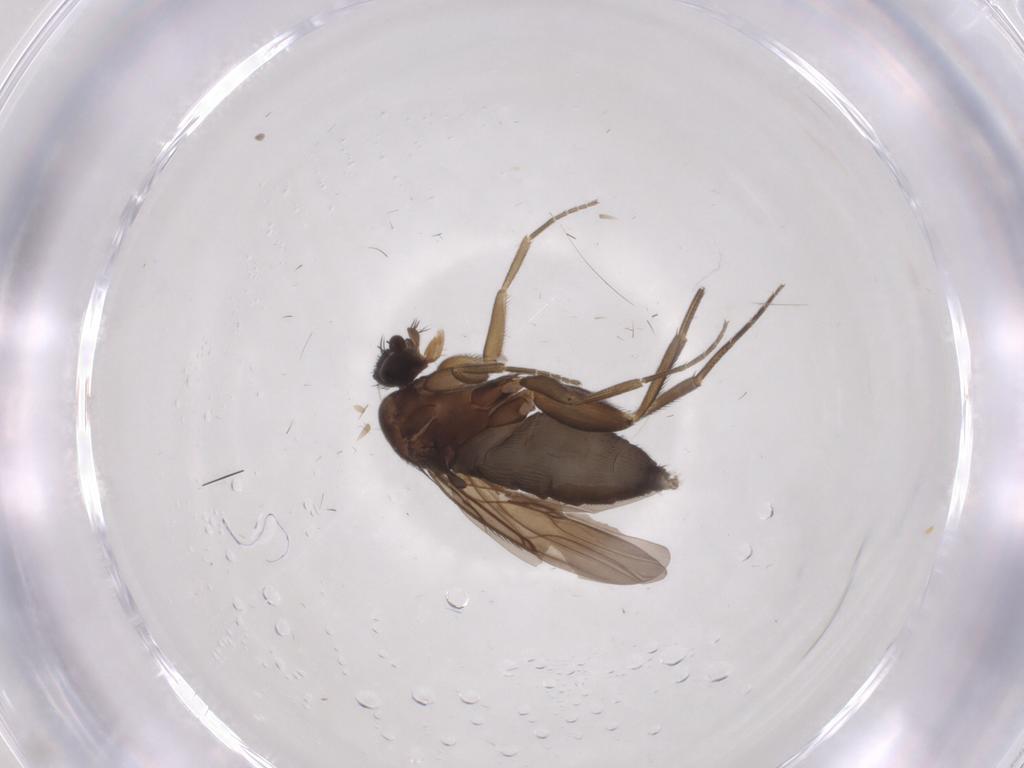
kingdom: Animalia
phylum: Arthropoda
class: Insecta
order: Diptera
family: Phoridae
